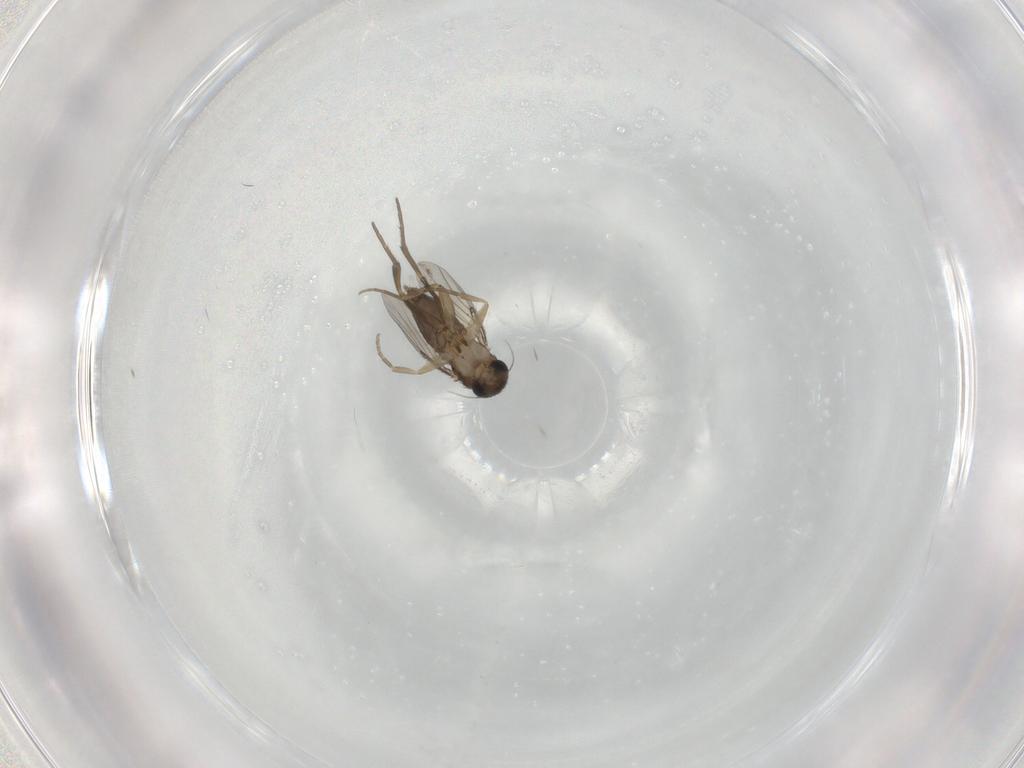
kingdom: Animalia
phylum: Arthropoda
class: Insecta
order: Diptera
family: Phoridae
